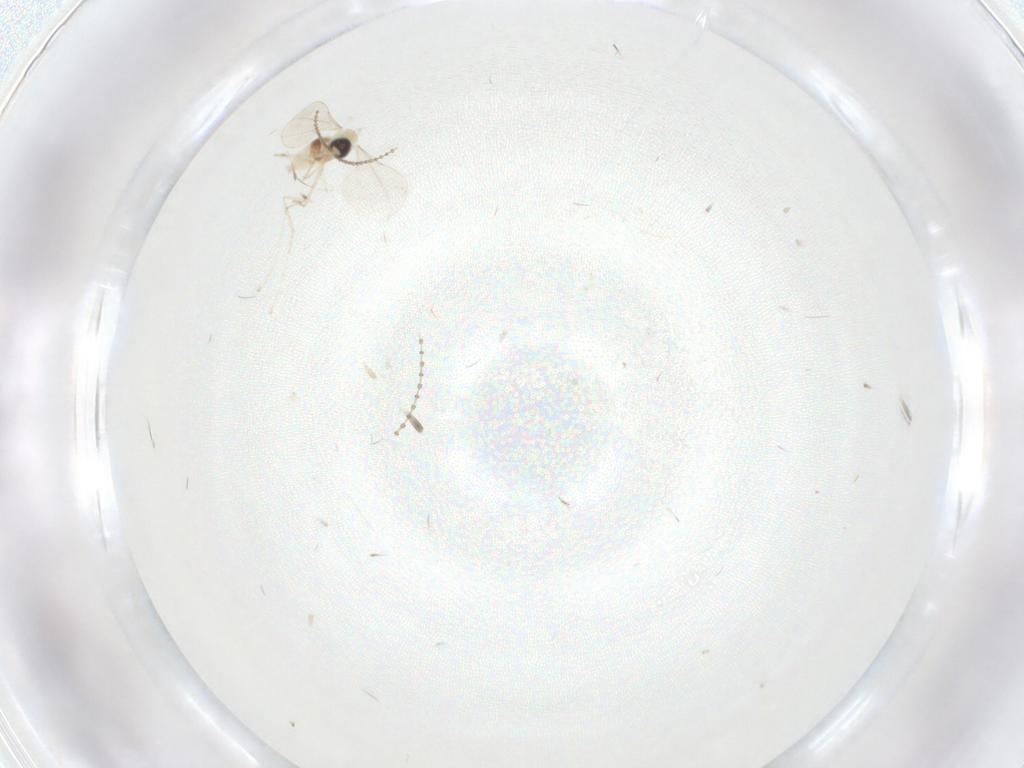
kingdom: Animalia
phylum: Arthropoda
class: Insecta
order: Diptera
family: Cecidomyiidae
